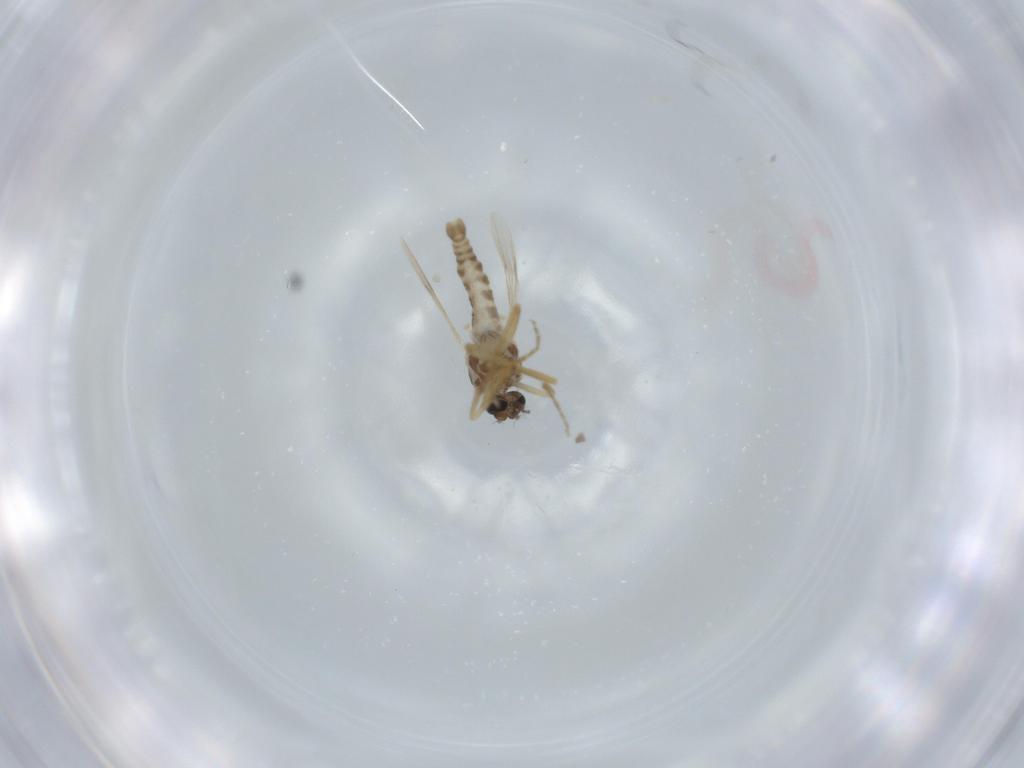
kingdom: Animalia
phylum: Arthropoda
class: Insecta
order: Diptera
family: Ceratopogonidae
